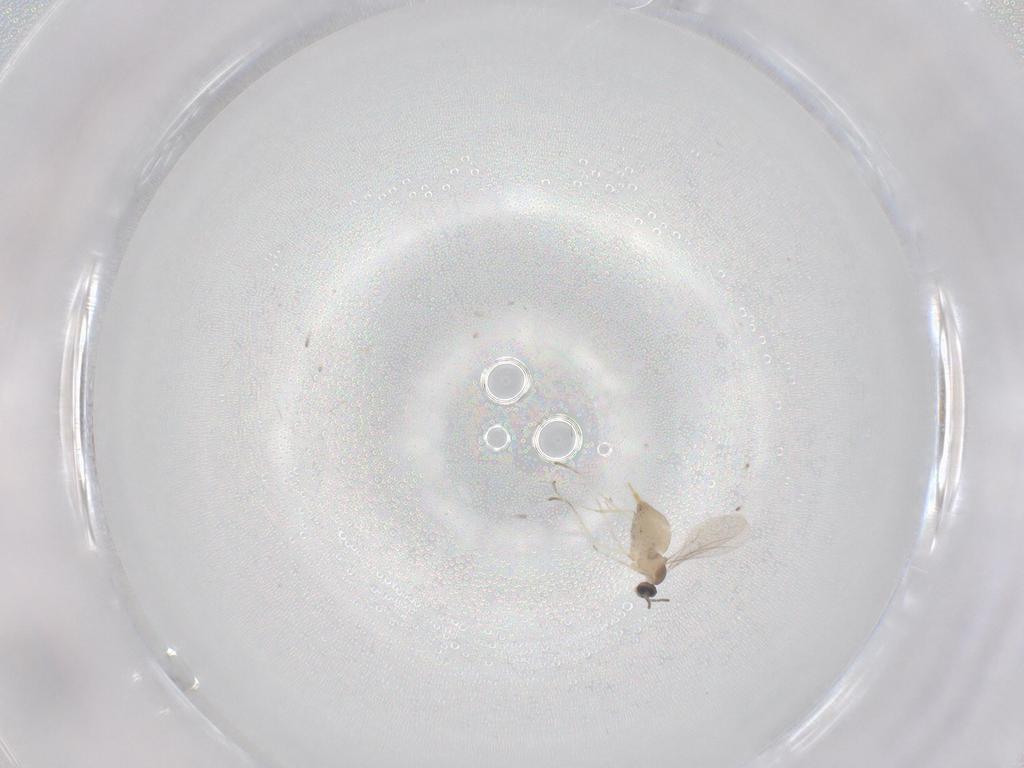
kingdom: Animalia
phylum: Arthropoda
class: Insecta
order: Diptera
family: Cecidomyiidae
